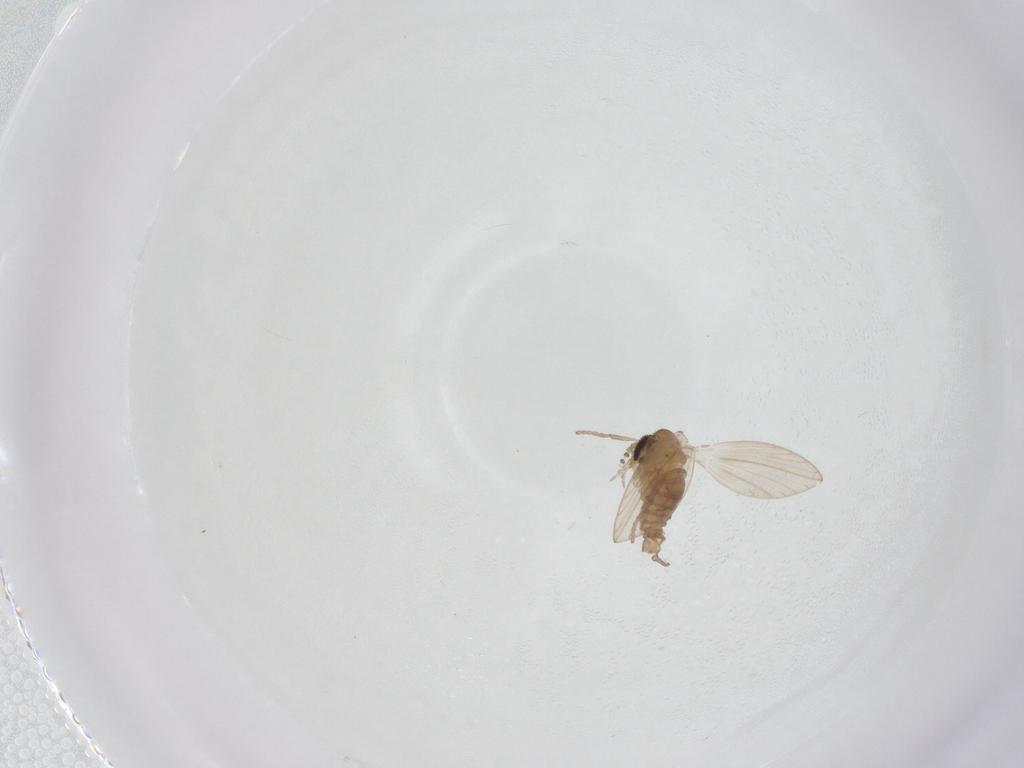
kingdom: Animalia
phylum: Arthropoda
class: Insecta
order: Diptera
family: Psychodidae
